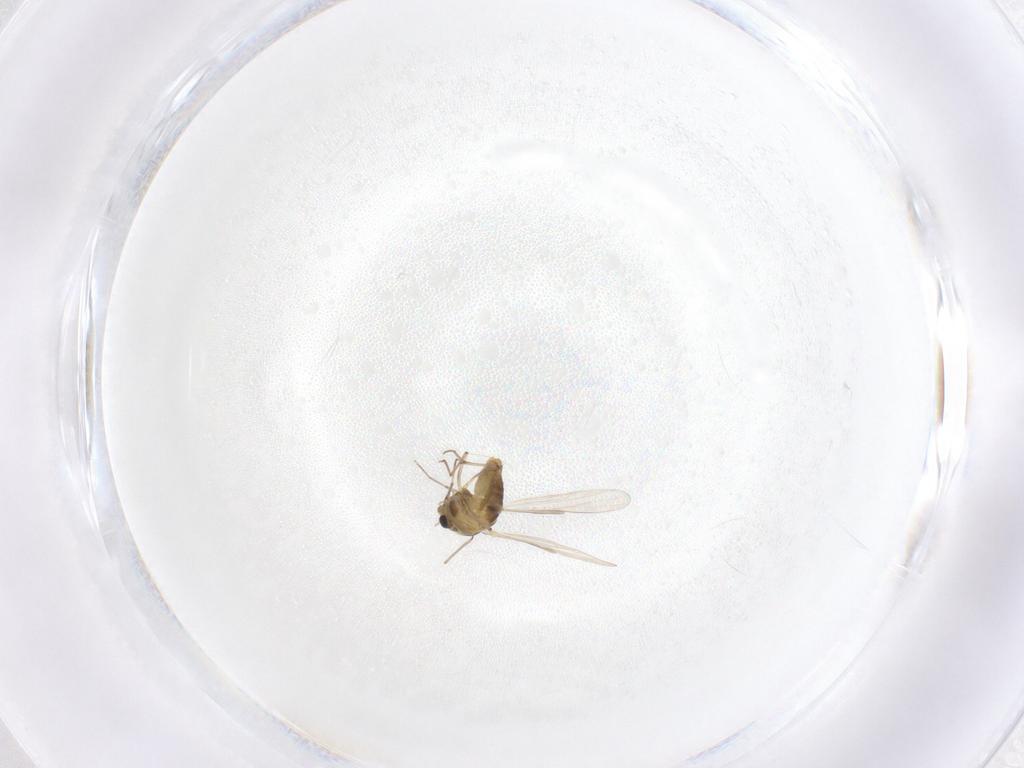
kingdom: Animalia
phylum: Arthropoda
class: Insecta
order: Diptera
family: Chironomidae
